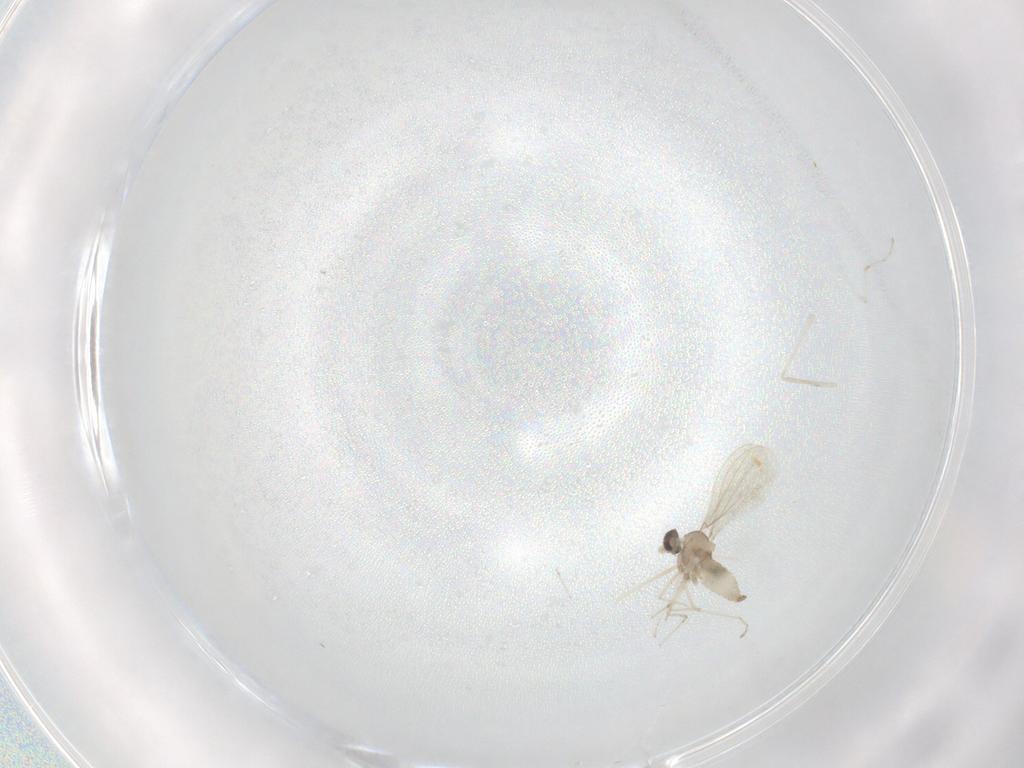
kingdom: Animalia
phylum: Arthropoda
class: Insecta
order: Diptera
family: Cecidomyiidae
